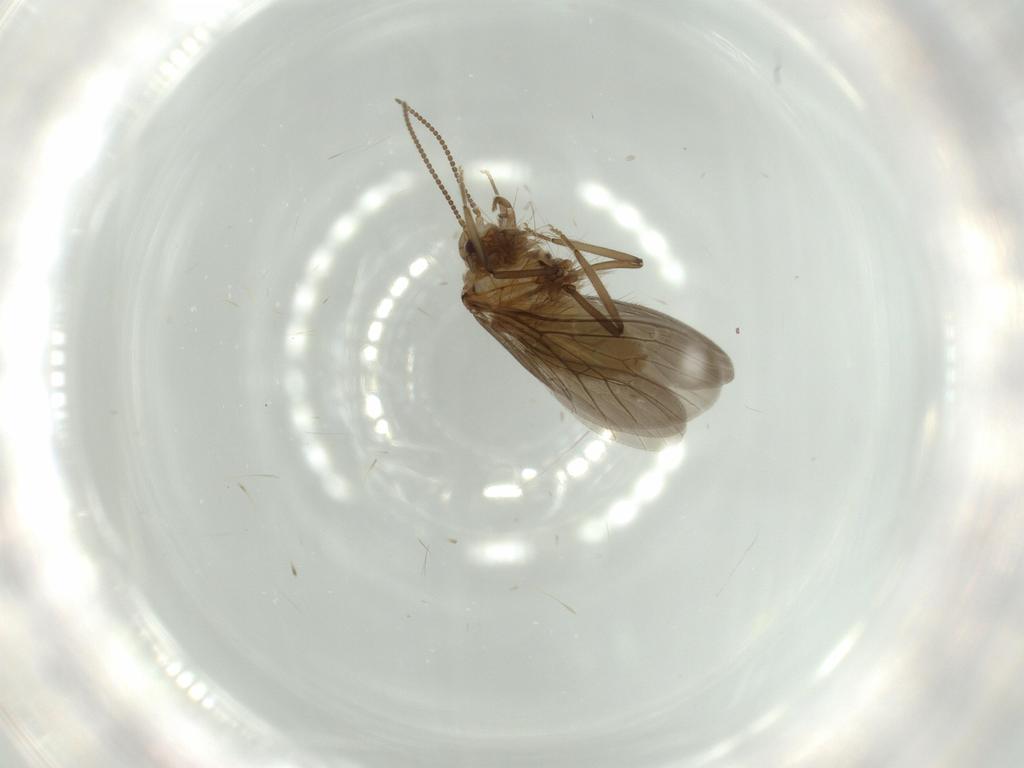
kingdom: Animalia
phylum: Arthropoda
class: Insecta
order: Neuroptera
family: Coniopterygidae
